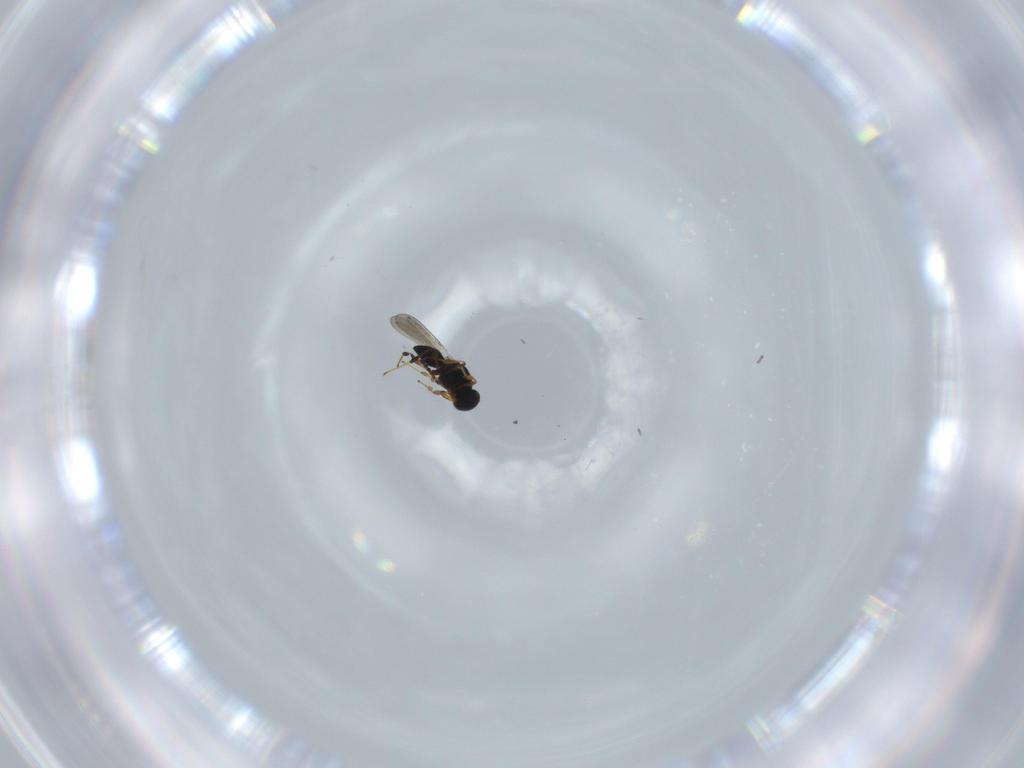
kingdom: Animalia
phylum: Arthropoda
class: Insecta
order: Hymenoptera
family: Platygastridae
